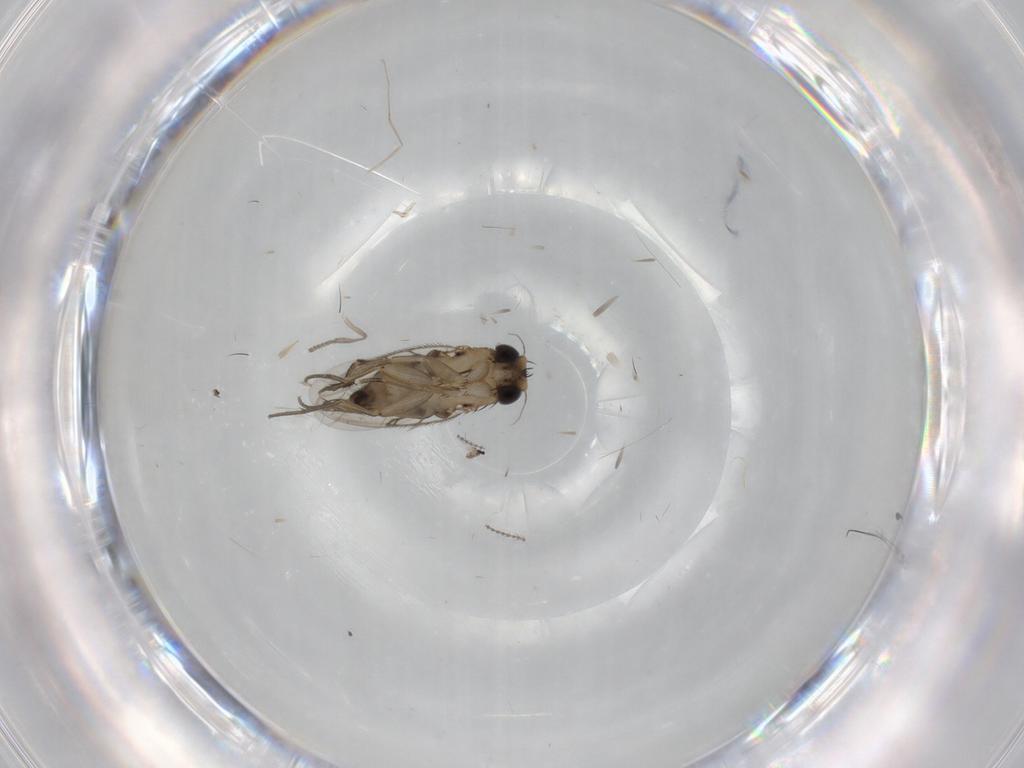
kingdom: Animalia
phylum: Arthropoda
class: Insecta
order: Diptera
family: Phoridae
